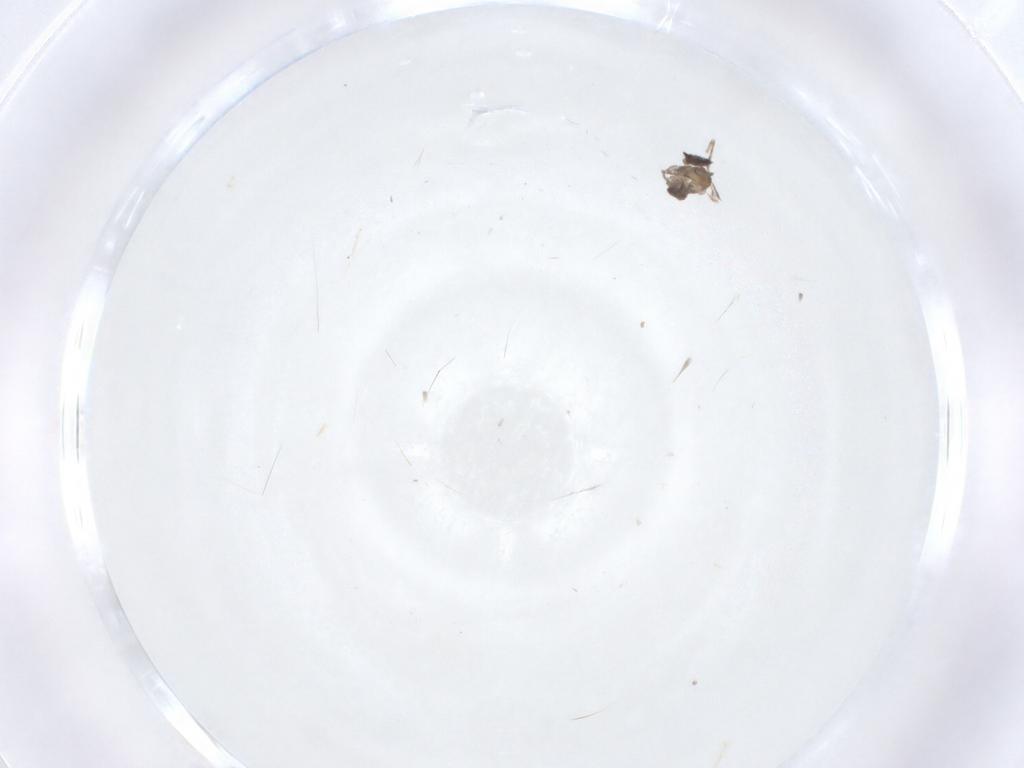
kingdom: Animalia
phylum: Arthropoda
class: Insecta
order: Diptera
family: Cecidomyiidae
